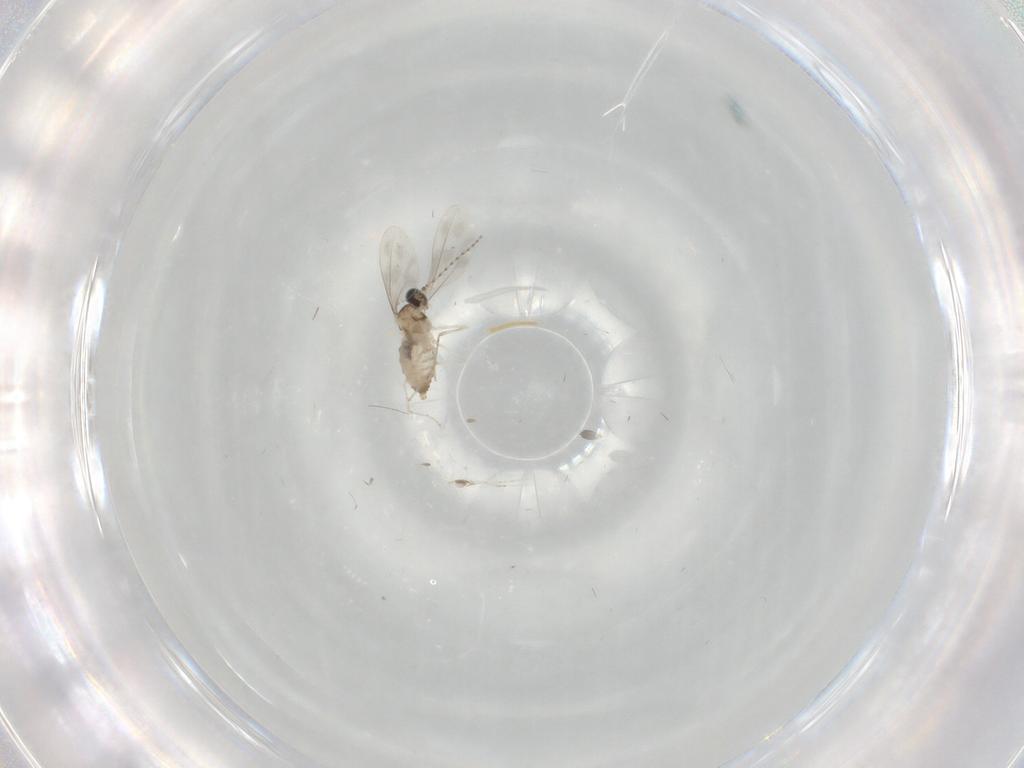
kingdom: Animalia
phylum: Arthropoda
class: Insecta
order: Diptera
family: Cecidomyiidae
